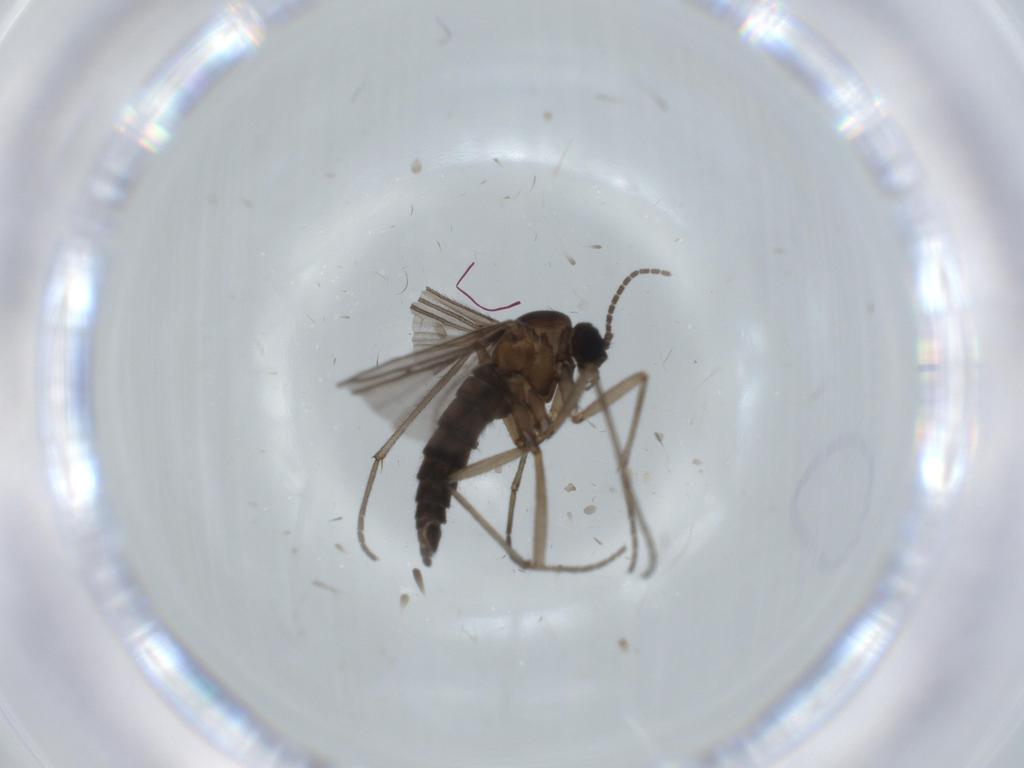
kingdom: Animalia
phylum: Arthropoda
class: Insecta
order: Diptera
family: Sciaridae
